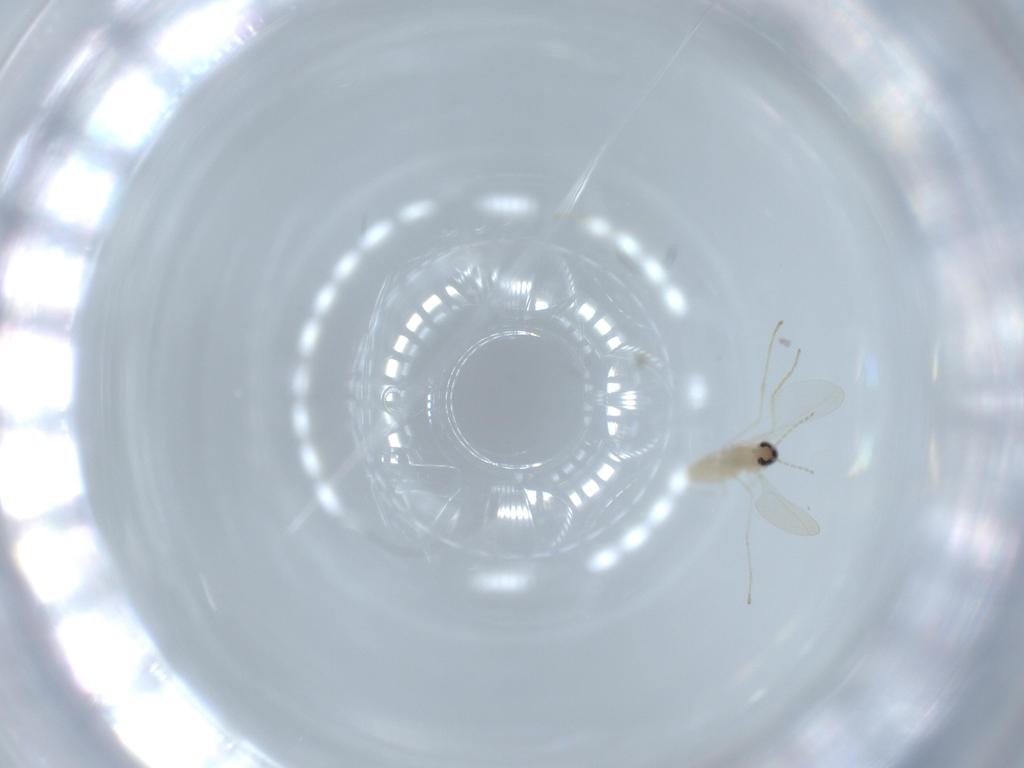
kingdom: Animalia
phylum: Arthropoda
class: Insecta
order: Diptera
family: Cecidomyiidae
